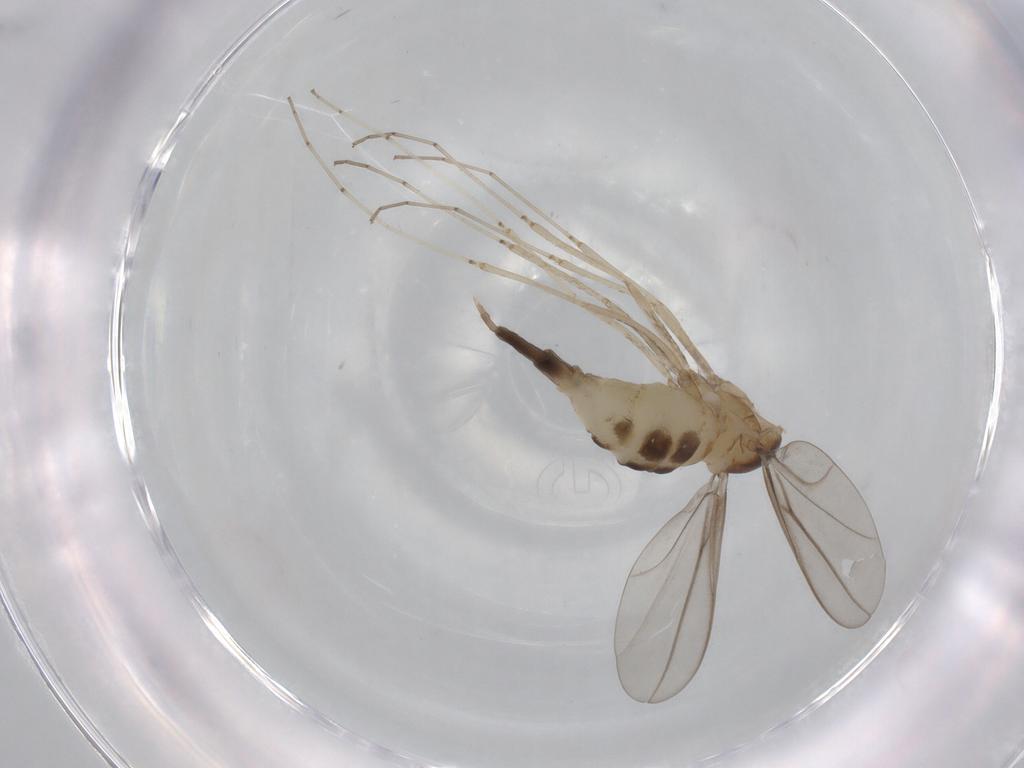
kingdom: Animalia
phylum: Arthropoda
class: Insecta
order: Diptera
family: Cecidomyiidae
